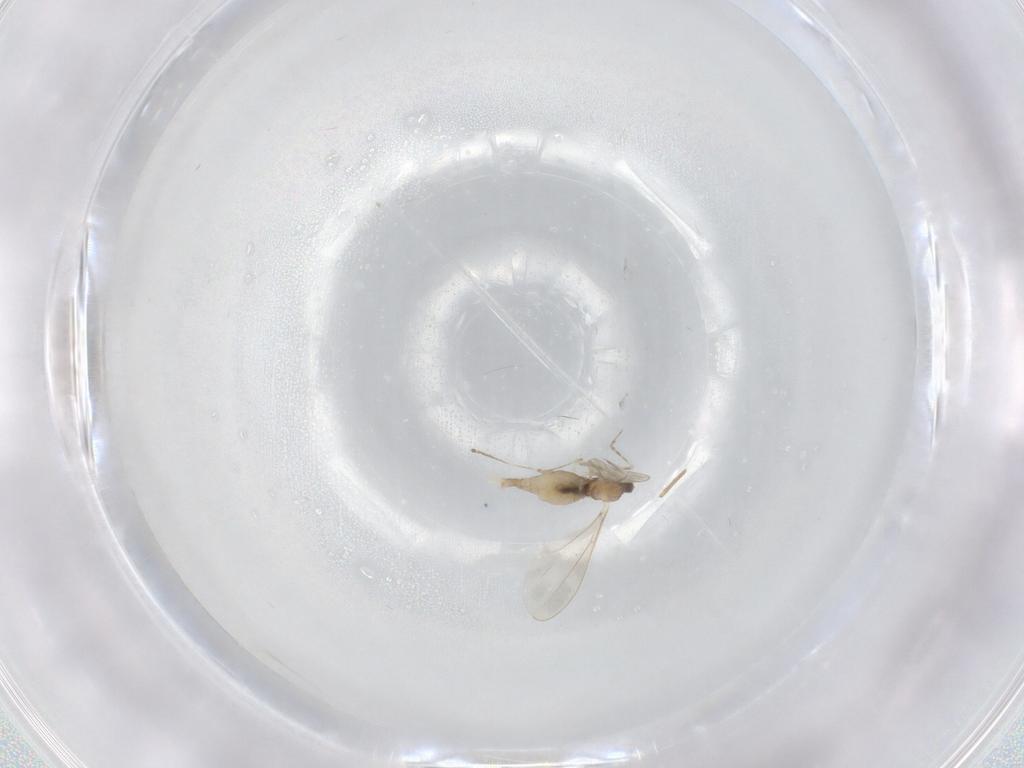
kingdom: Animalia
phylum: Arthropoda
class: Insecta
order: Diptera
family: Cecidomyiidae
